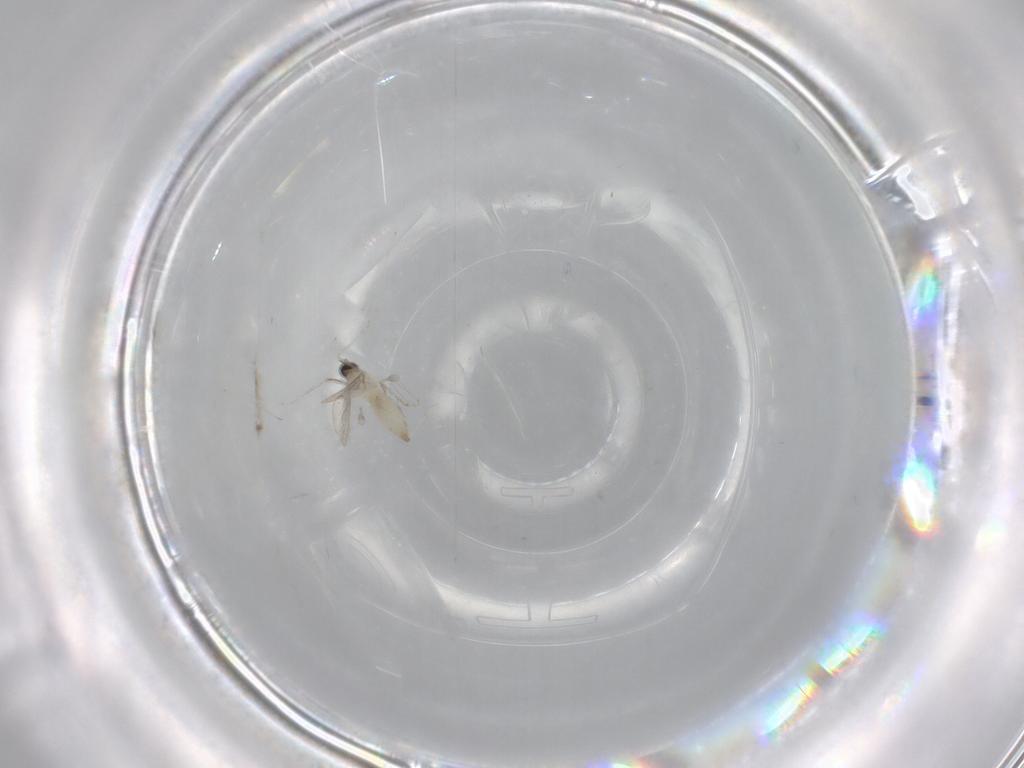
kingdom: Animalia
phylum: Arthropoda
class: Insecta
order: Diptera
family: Cecidomyiidae
